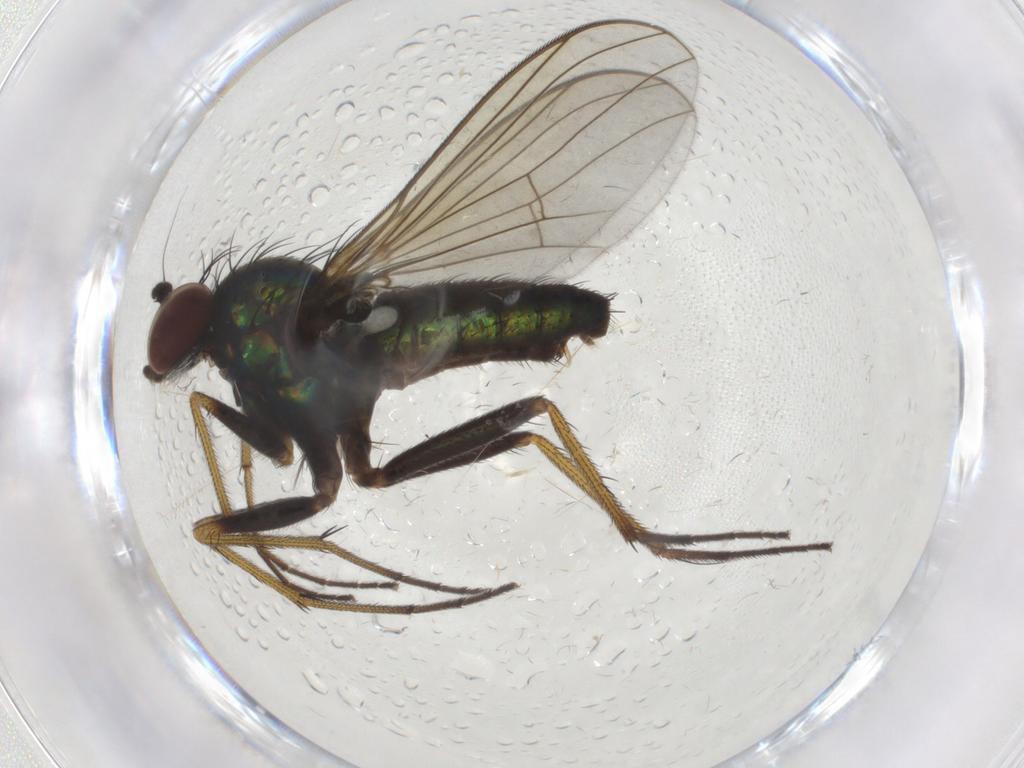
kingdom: Animalia
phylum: Arthropoda
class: Insecta
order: Diptera
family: Dolichopodidae
